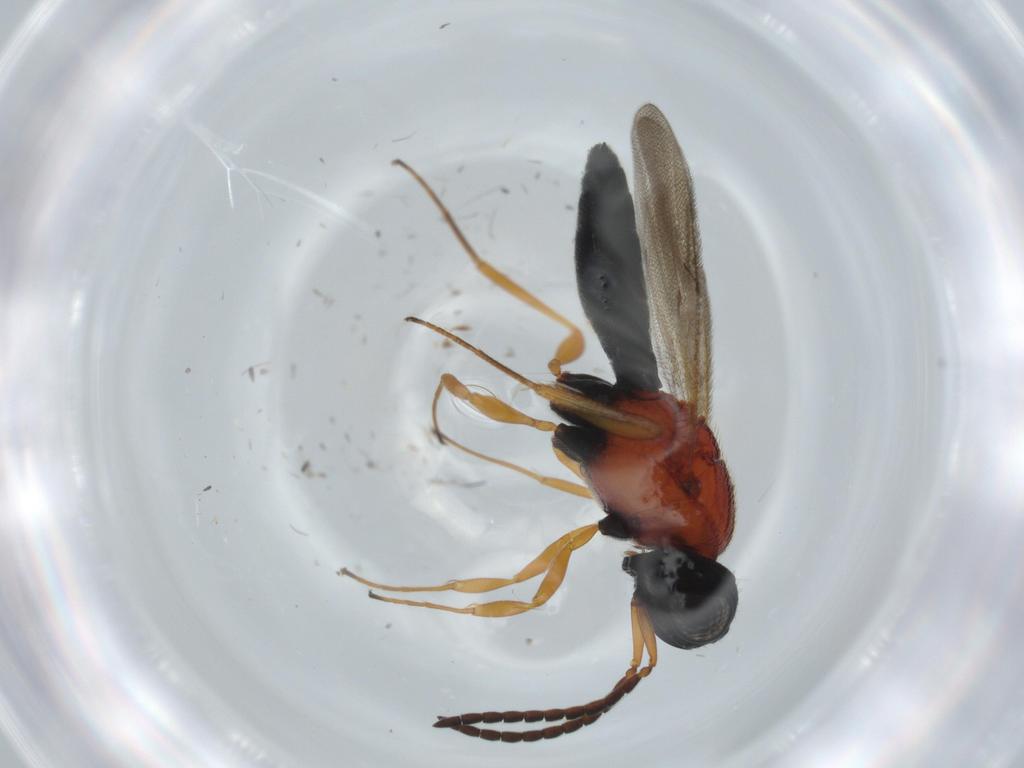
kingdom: Animalia
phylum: Arthropoda
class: Insecta
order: Hymenoptera
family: Scelionidae
